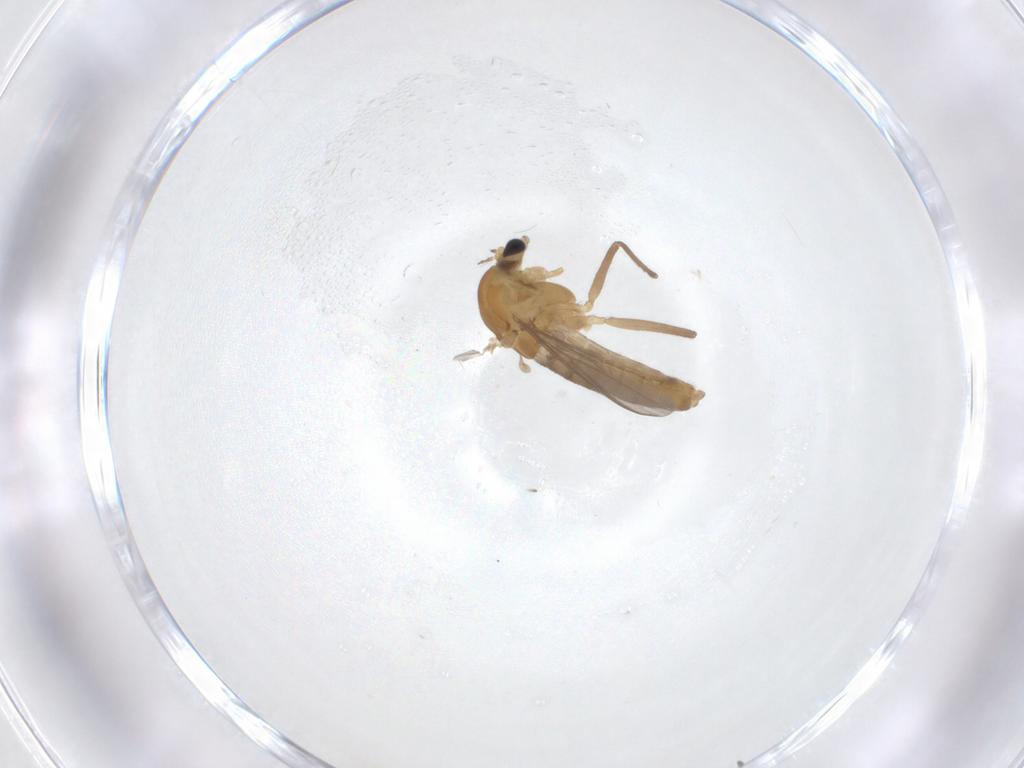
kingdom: Animalia
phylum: Arthropoda
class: Insecta
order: Diptera
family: Chironomidae
